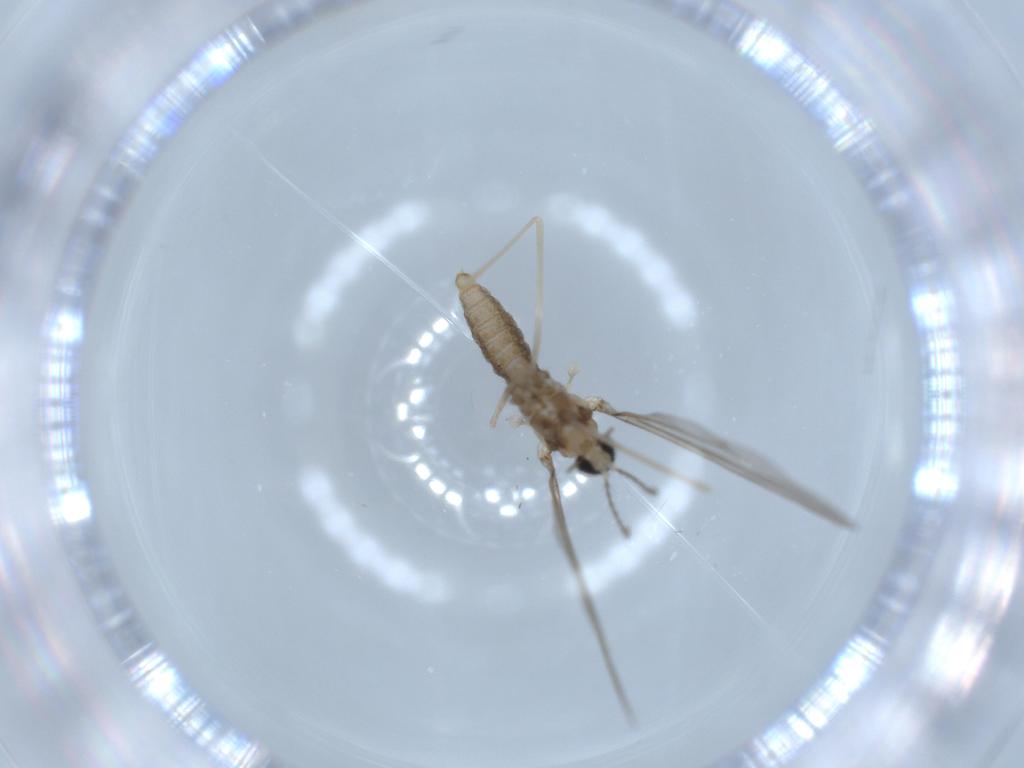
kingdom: Animalia
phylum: Arthropoda
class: Insecta
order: Diptera
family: Cecidomyiidae
